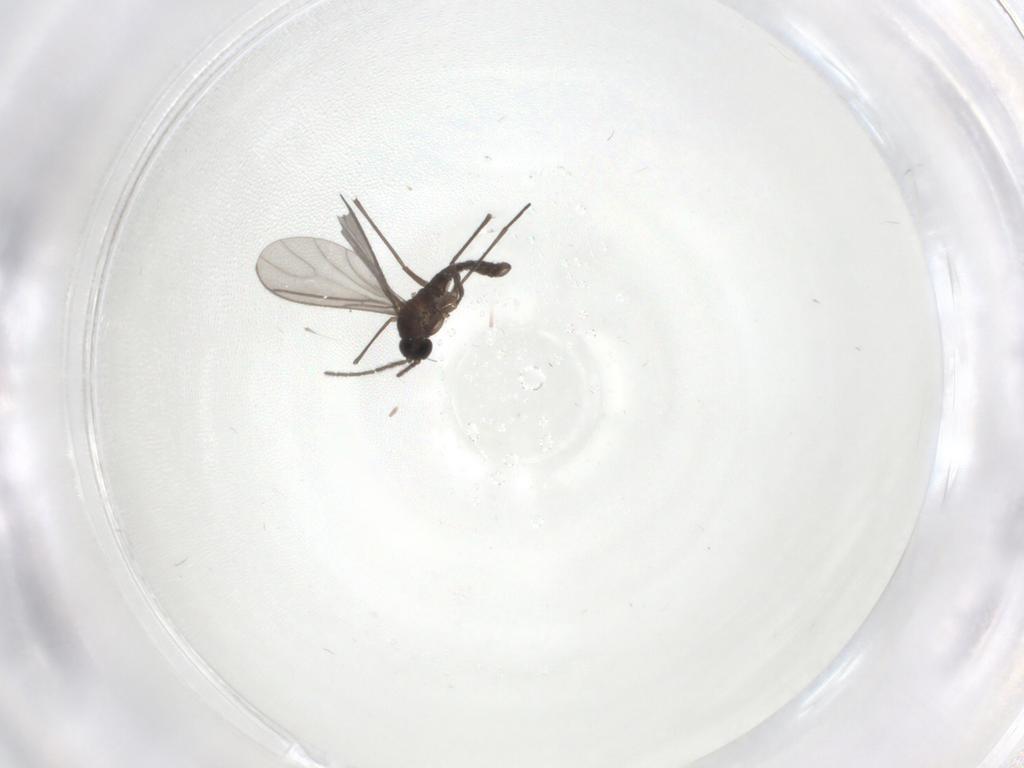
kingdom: Animalia
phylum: Arthropoda
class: Insecta
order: Diptera
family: Sciaridae
